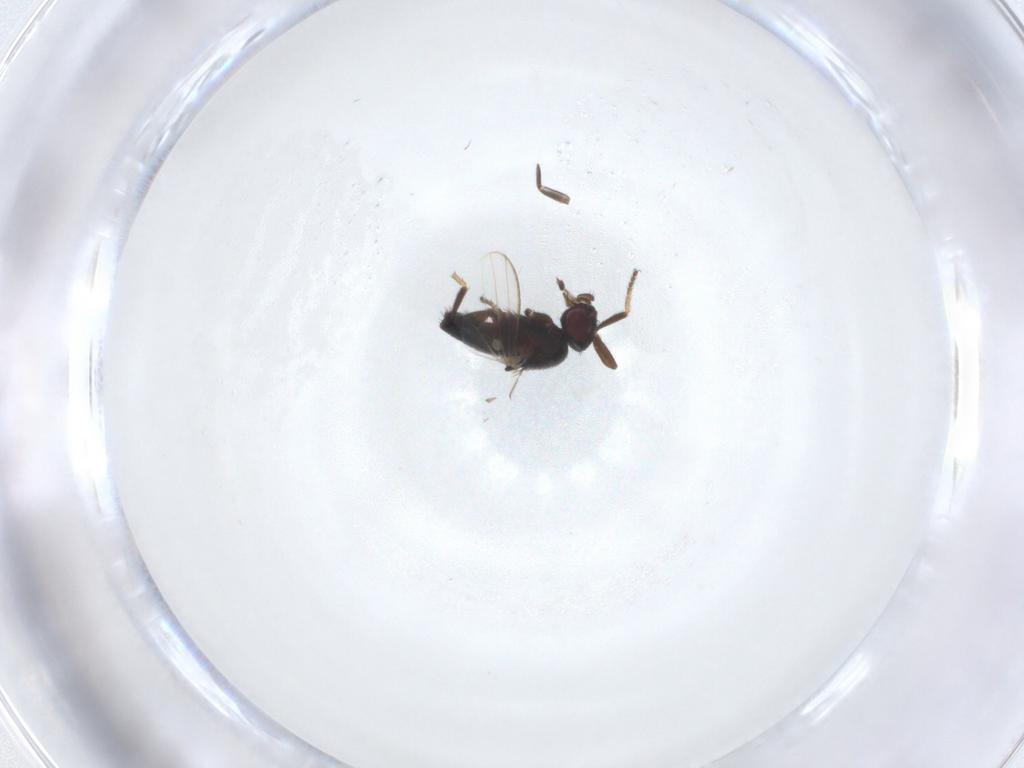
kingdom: Animalia
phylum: Arthropoda
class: Insecta
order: Diptera
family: Milichiidae
